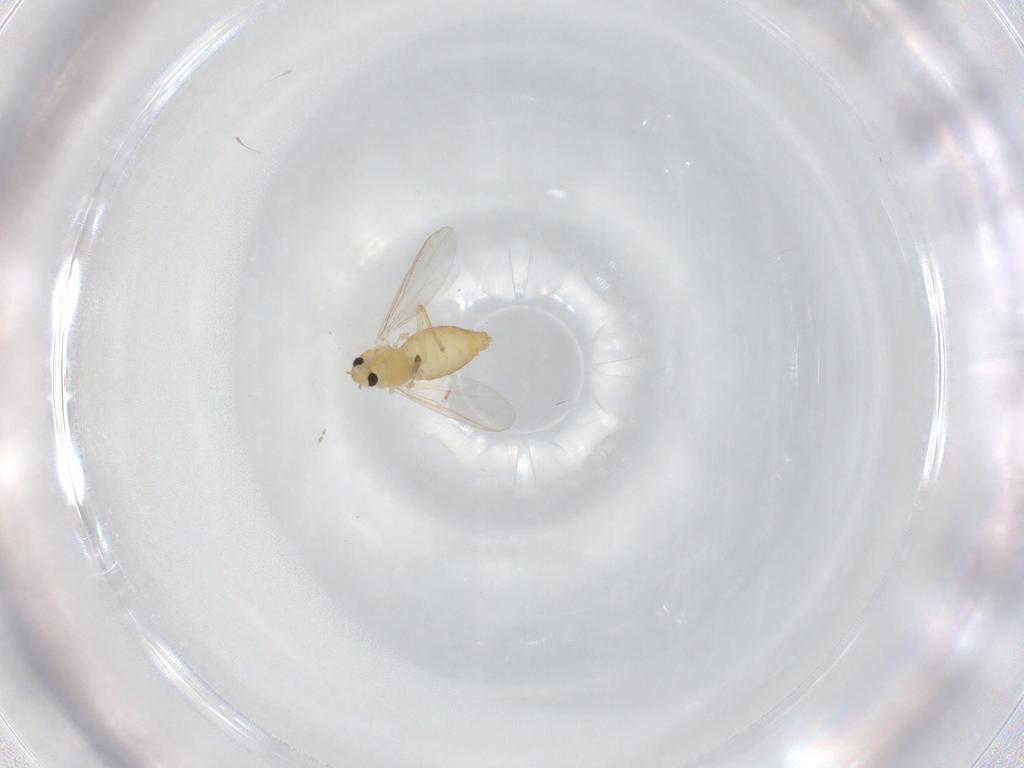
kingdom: Animalia
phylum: Arthropoda
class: Insecta
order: Diptera
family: Chironomidae
